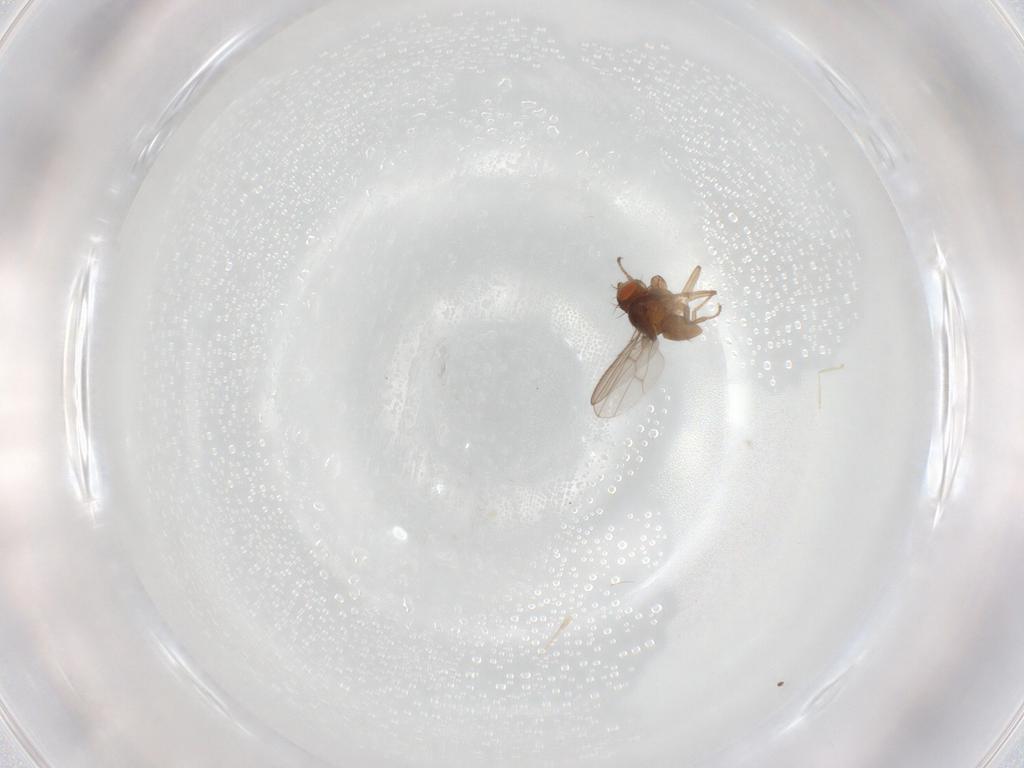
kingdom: Animalia
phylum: Arthropoda
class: Insecta
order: Diptera
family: Ephydridae
